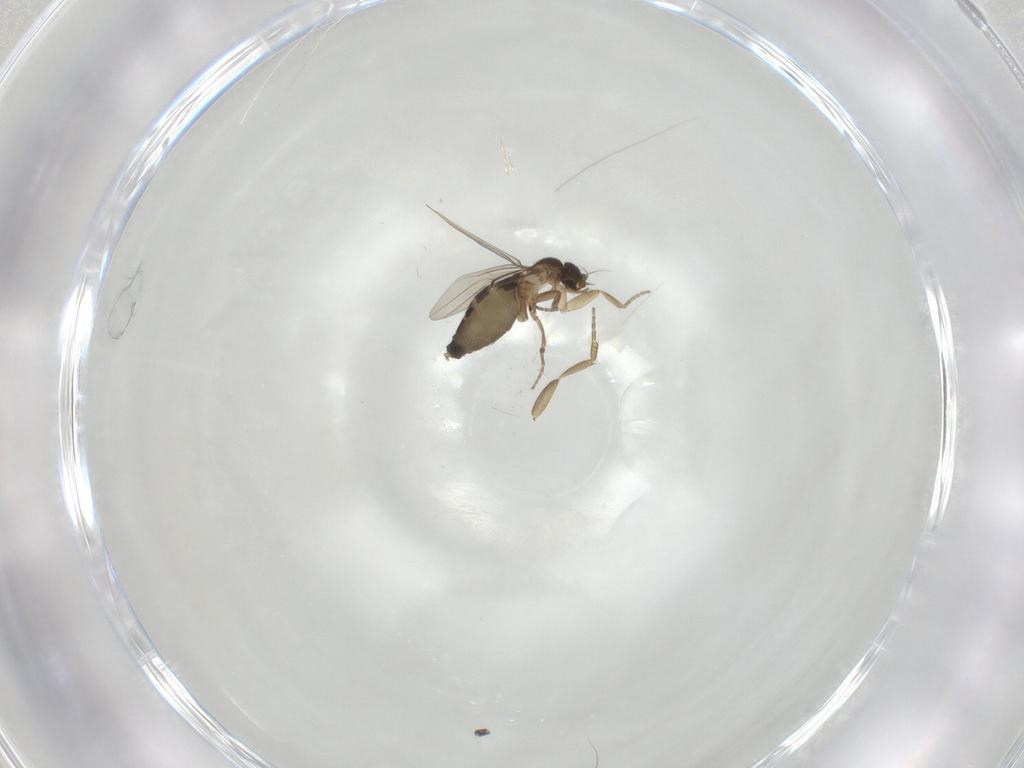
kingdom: Animalia
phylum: Arthropoda
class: Insecta
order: Diptera
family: Phoridae
